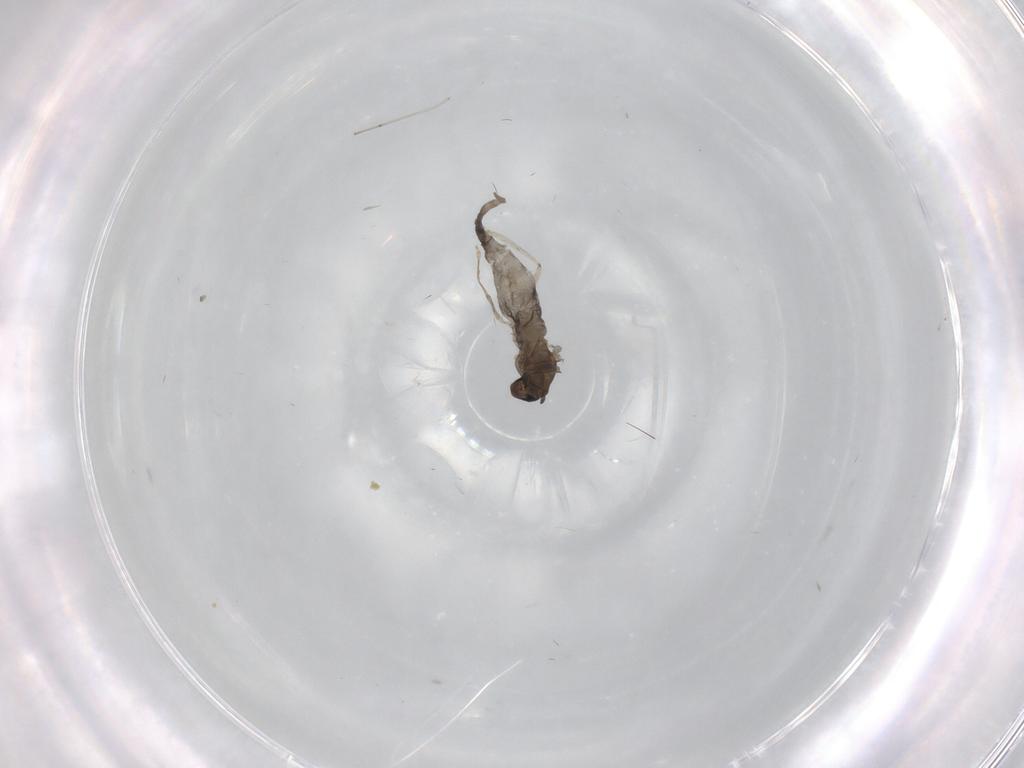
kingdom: Animalia
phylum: Arthropoda
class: Insecta
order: Diptera
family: Cecidomyiidae
